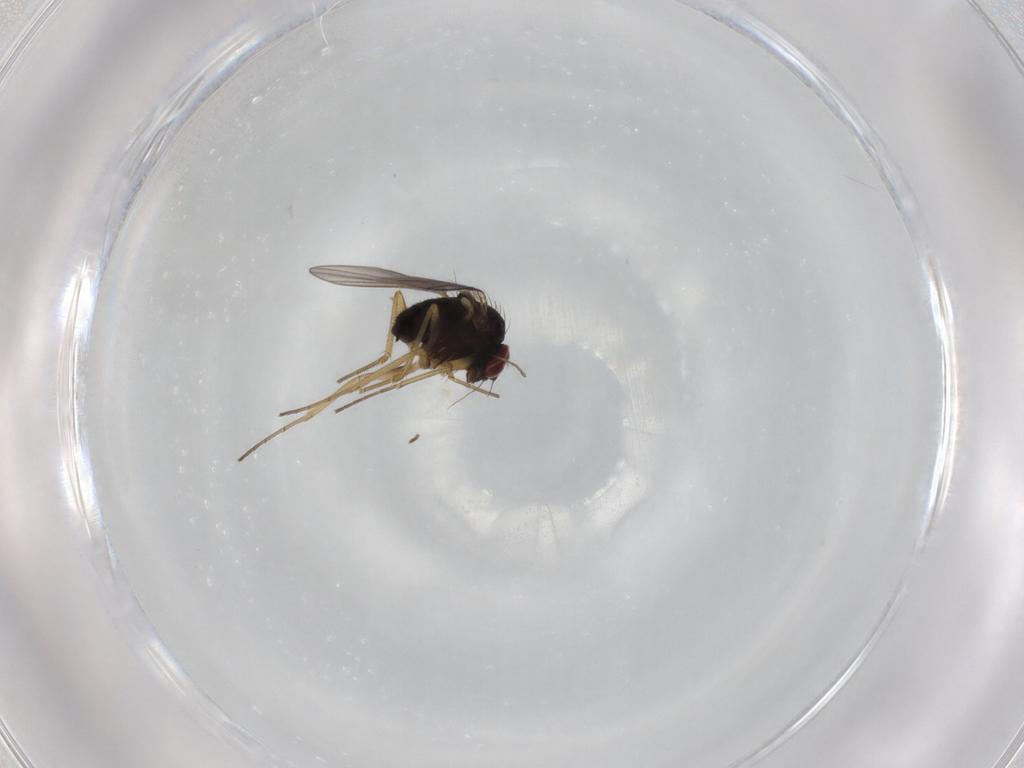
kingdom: Animalia
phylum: Arthropoda
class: Insecta
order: Diptera
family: Dolichopodidae
